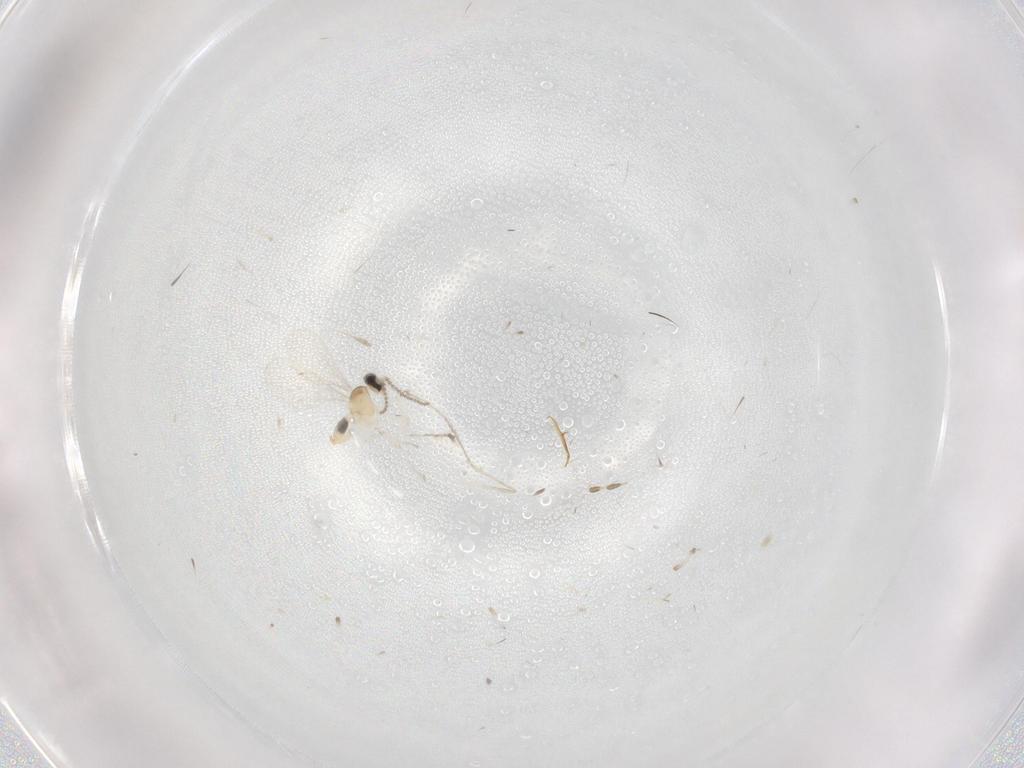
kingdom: Animalia
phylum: Arthropoda
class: Insecta
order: Diptera
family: Cecidomyiidae
